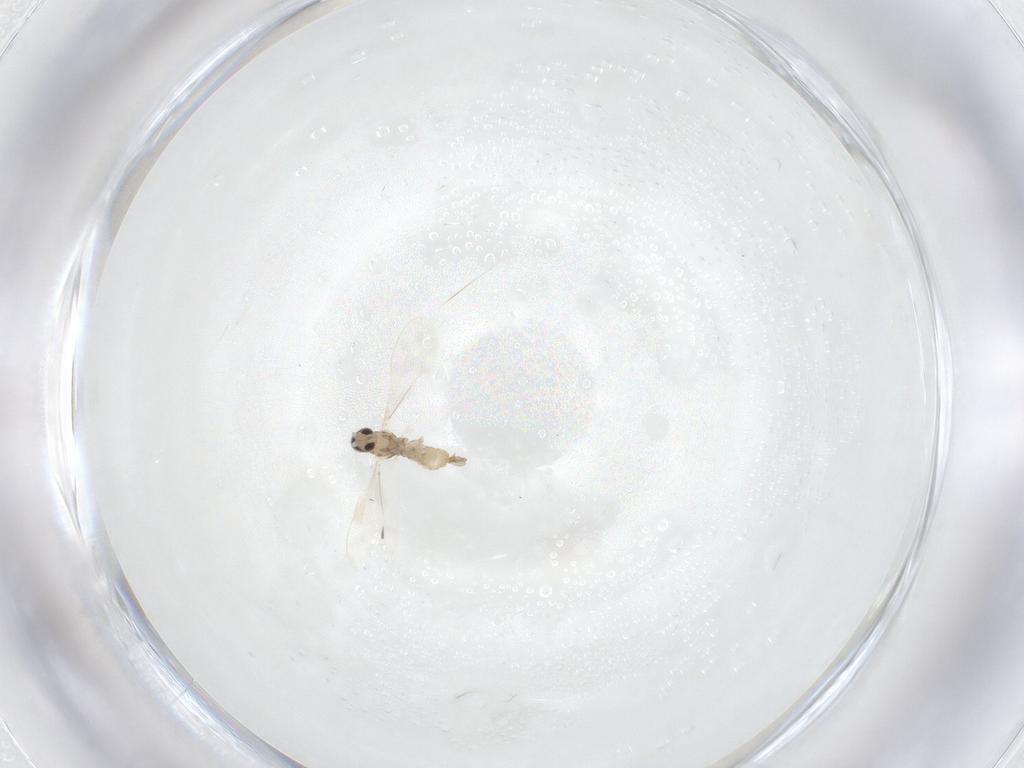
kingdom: Animalia
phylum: Arthropoda
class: Insecta
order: Diptera
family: Cecidomyiidae
